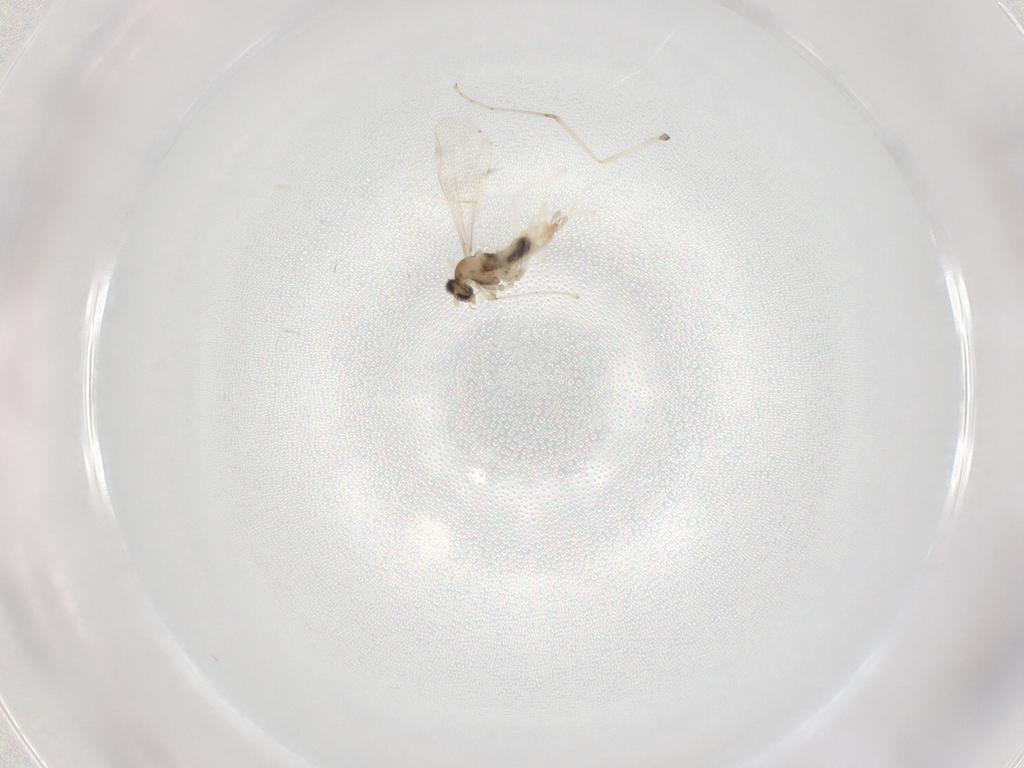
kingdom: Animalia
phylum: Arthropoda
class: Insecta
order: Diptera
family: Cecidomyiidae
